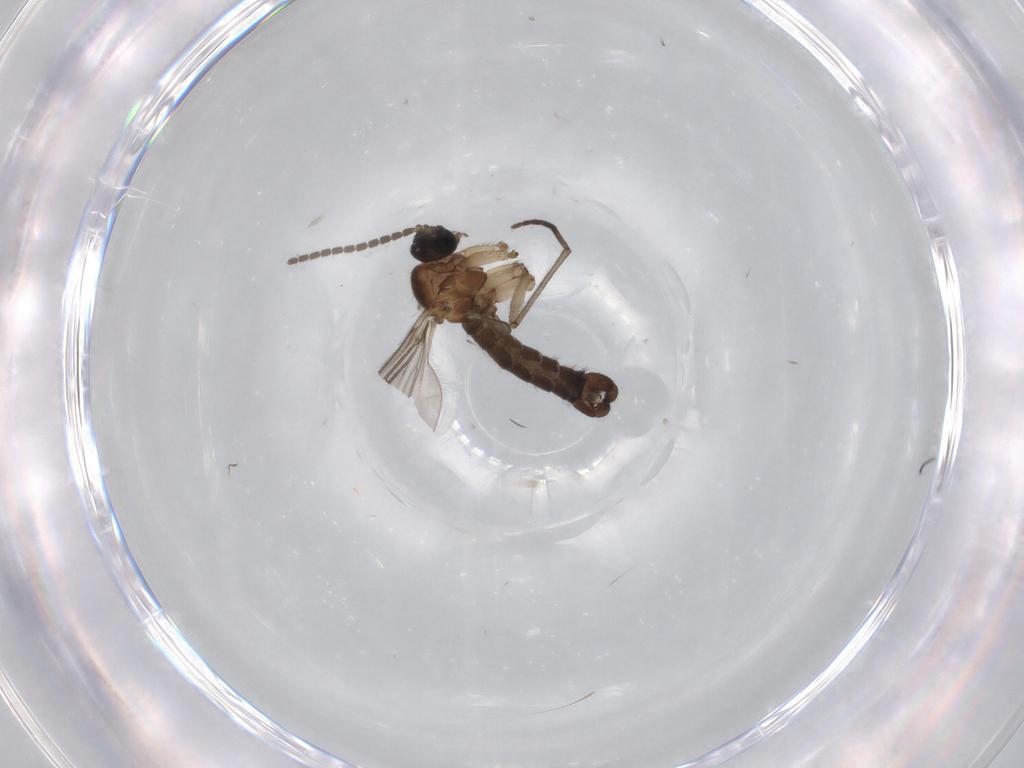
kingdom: Animalia
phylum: Arthropoda
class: Insecta
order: Diptera
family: Sciaridae
